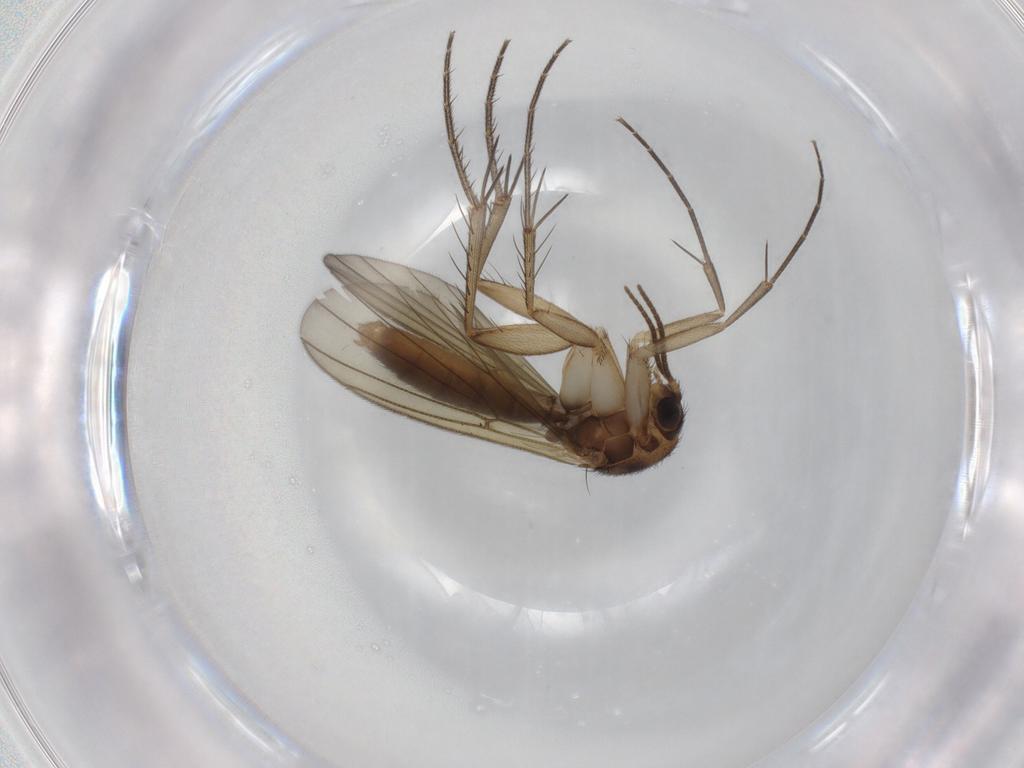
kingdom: Animalia
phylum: Arthropoda
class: Insecta
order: Diptera
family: Mycetophilidae
